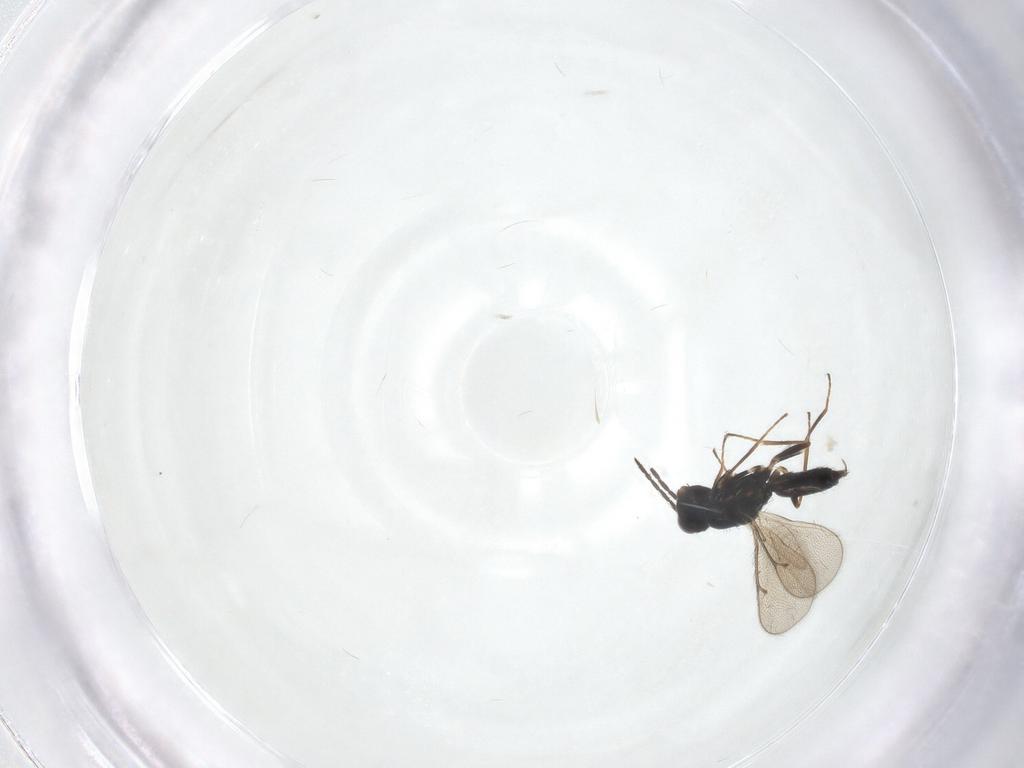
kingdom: Animalia
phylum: Arthropoda
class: Insecta
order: Hymenoptera
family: Eulophidae
